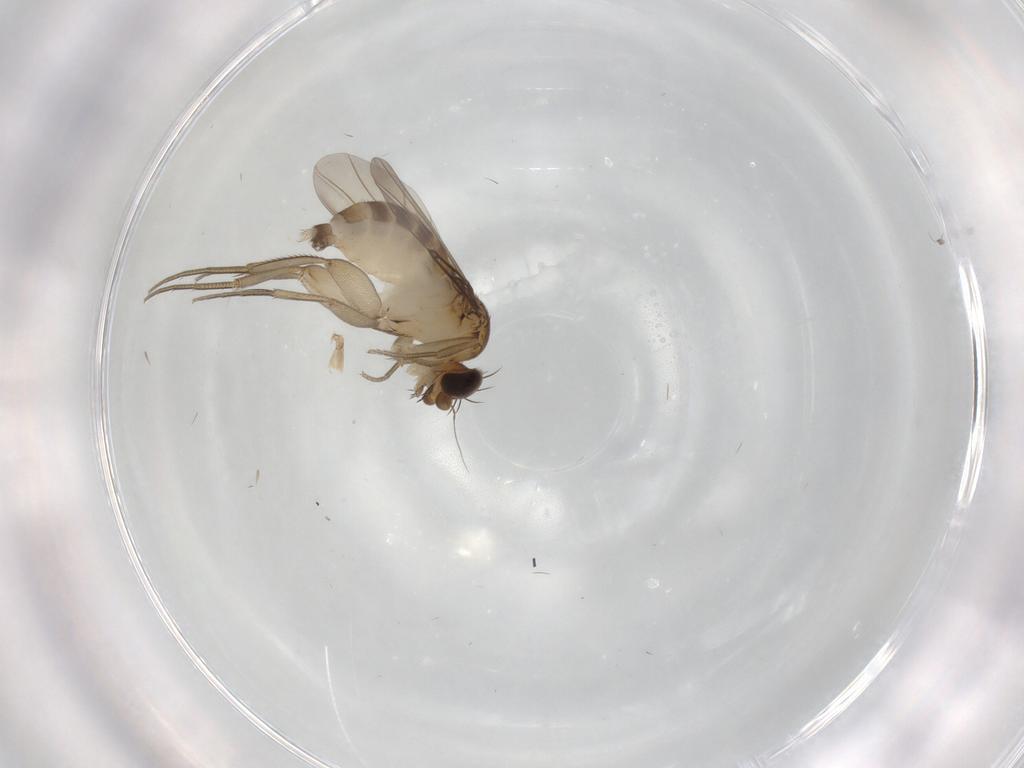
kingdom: Animalia
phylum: Arthropoda
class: Insecta
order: Diptera
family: Phoridae
